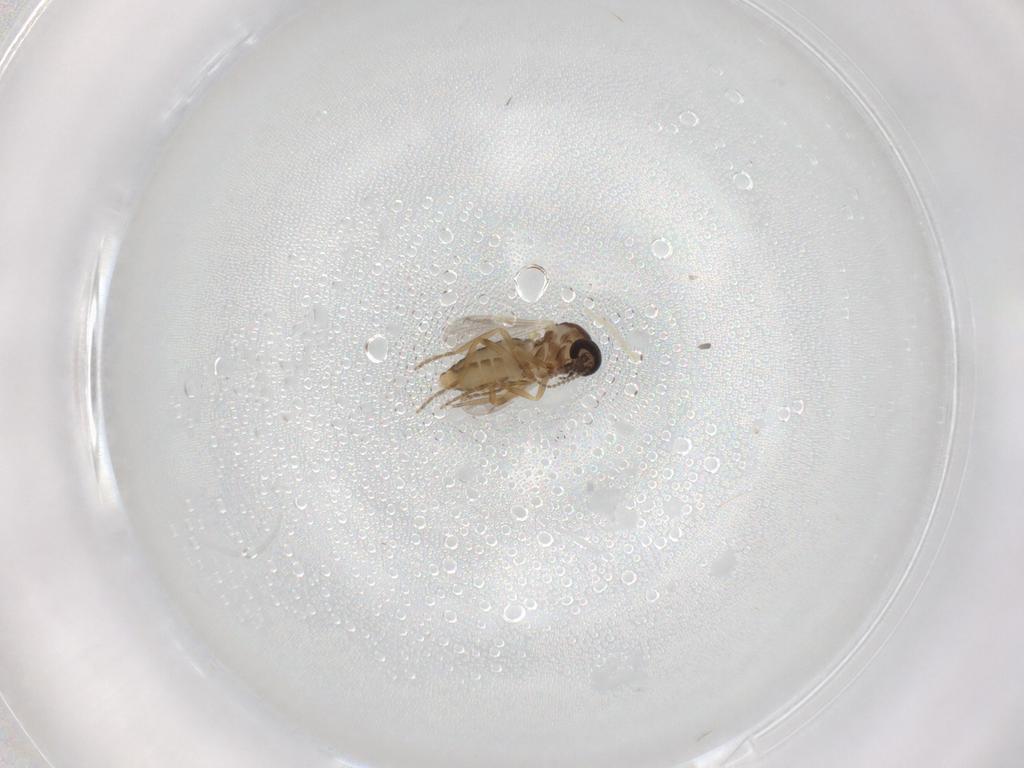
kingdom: Animalia
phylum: Arthropoda
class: Insecta
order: Diptera
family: Ceratopogonidae
